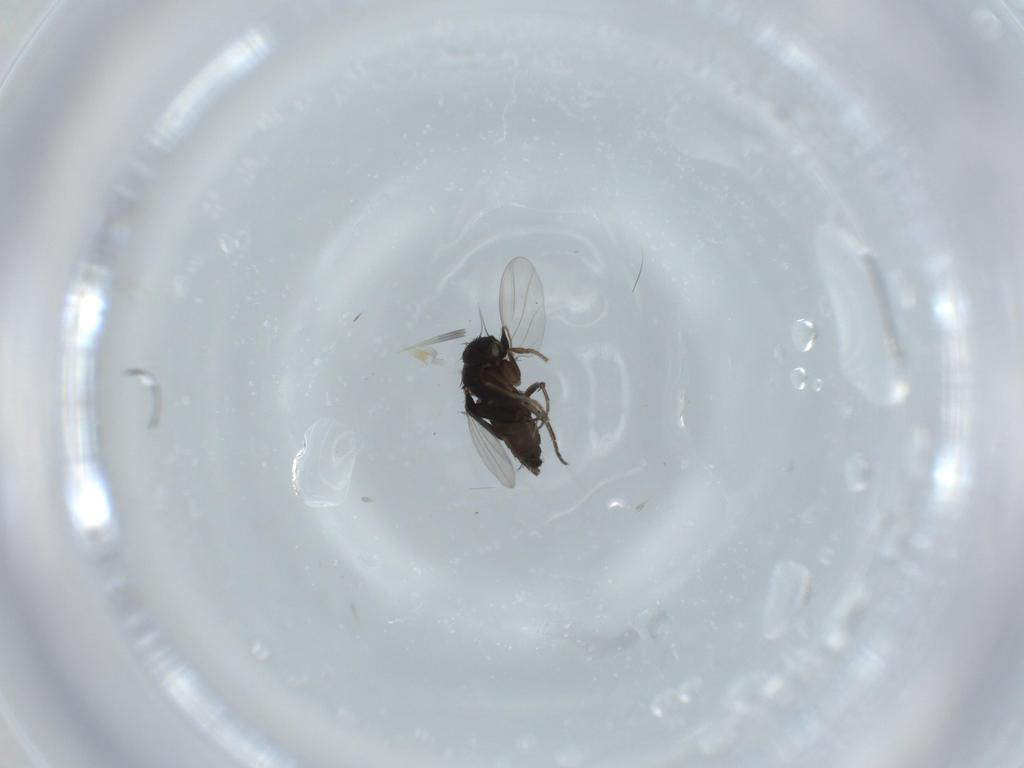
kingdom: Animalia
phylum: Arthropoda
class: Insecta
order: Diptera
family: Phoridae
